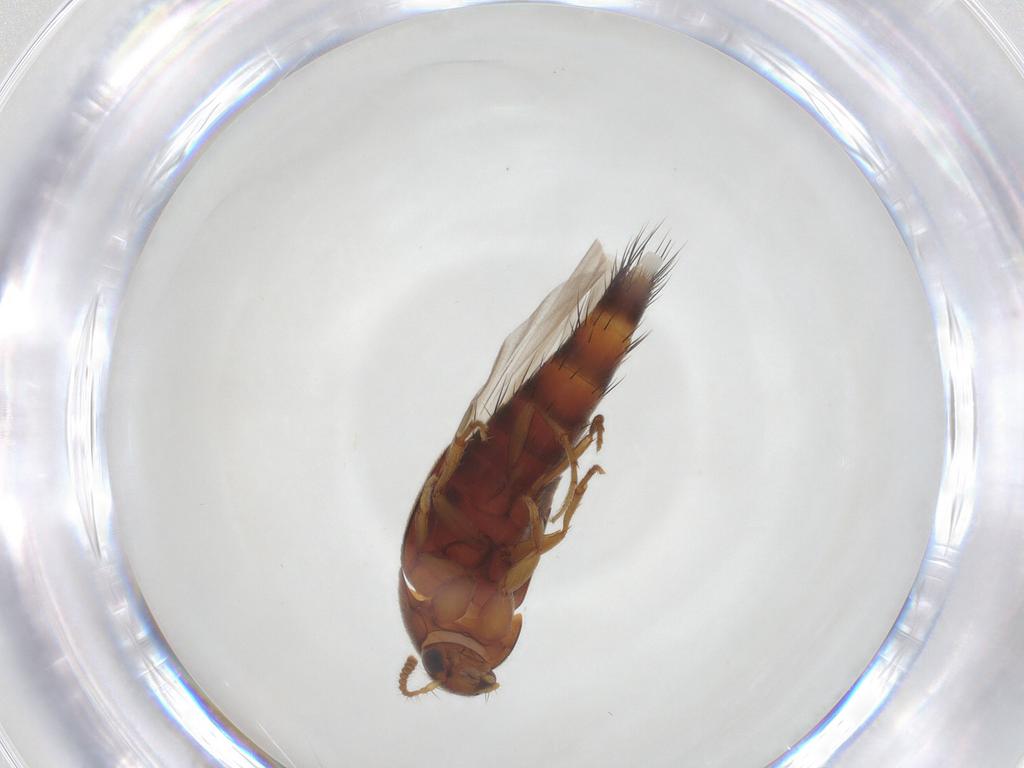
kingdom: Animalia
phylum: Arthropoda
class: Insecta
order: Coleoptera
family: Staphylinidae
